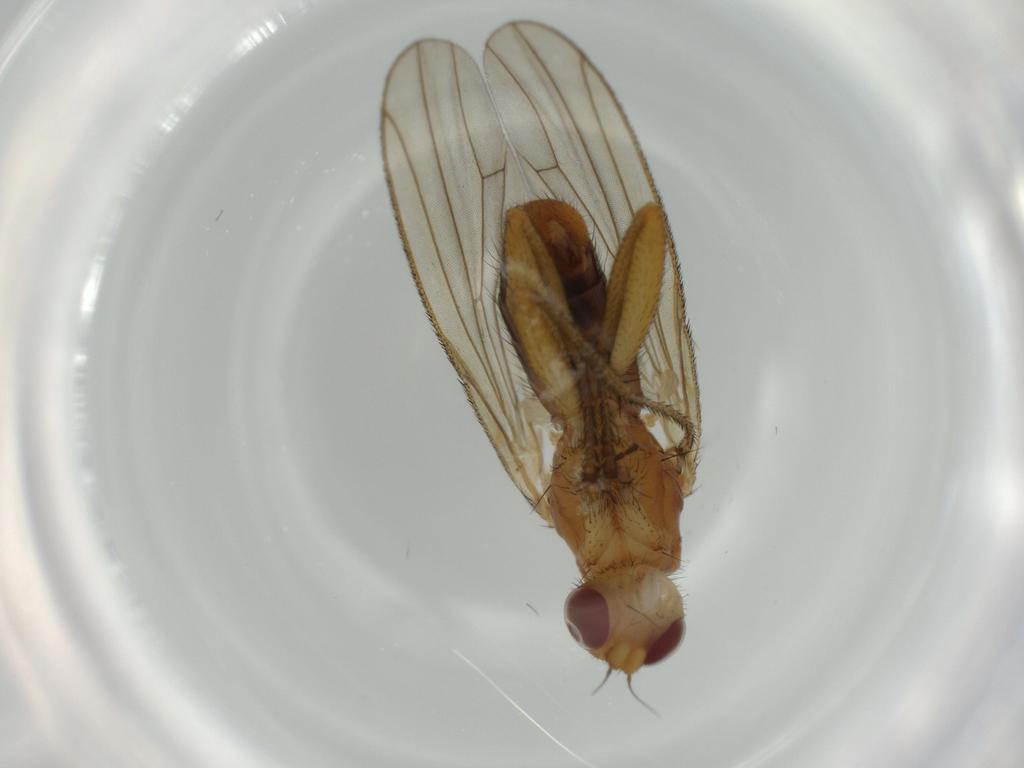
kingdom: Animalia
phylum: Arthropoda
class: Insecta
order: Diptera
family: Heleomyzidae
